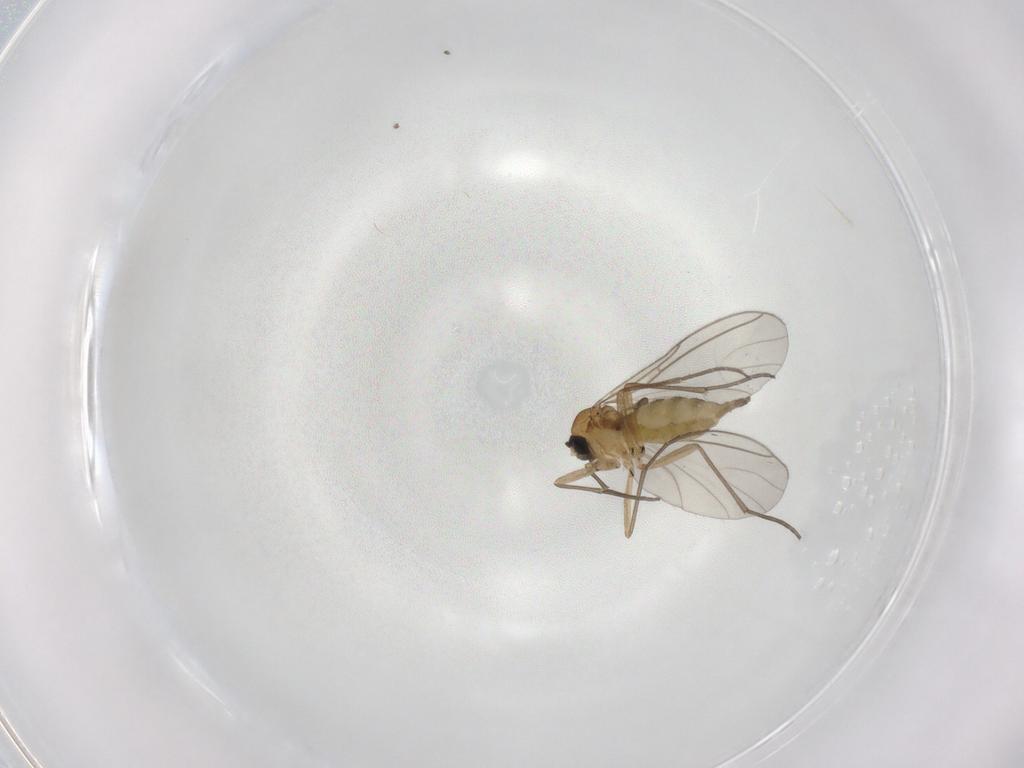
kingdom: Animalia
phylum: Arthropoda
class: Insecta
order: Diptera
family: Sciaridae
